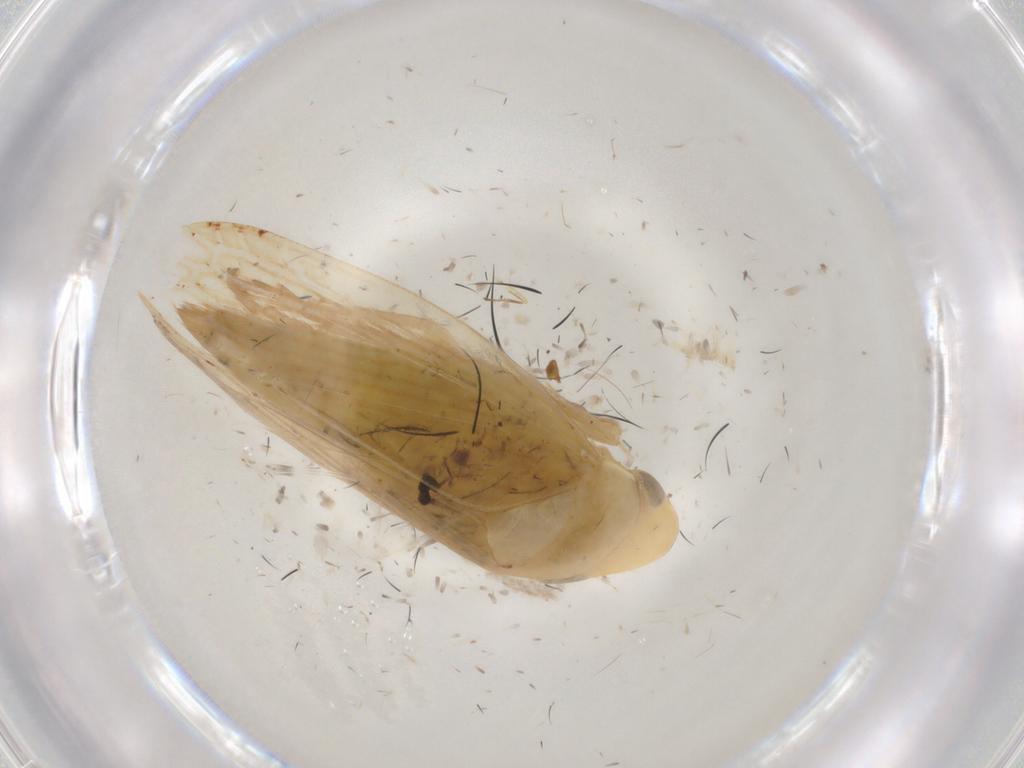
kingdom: Animalia
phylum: Arthropoda
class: Insecta
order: Hemiptera
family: Cicadellidae
